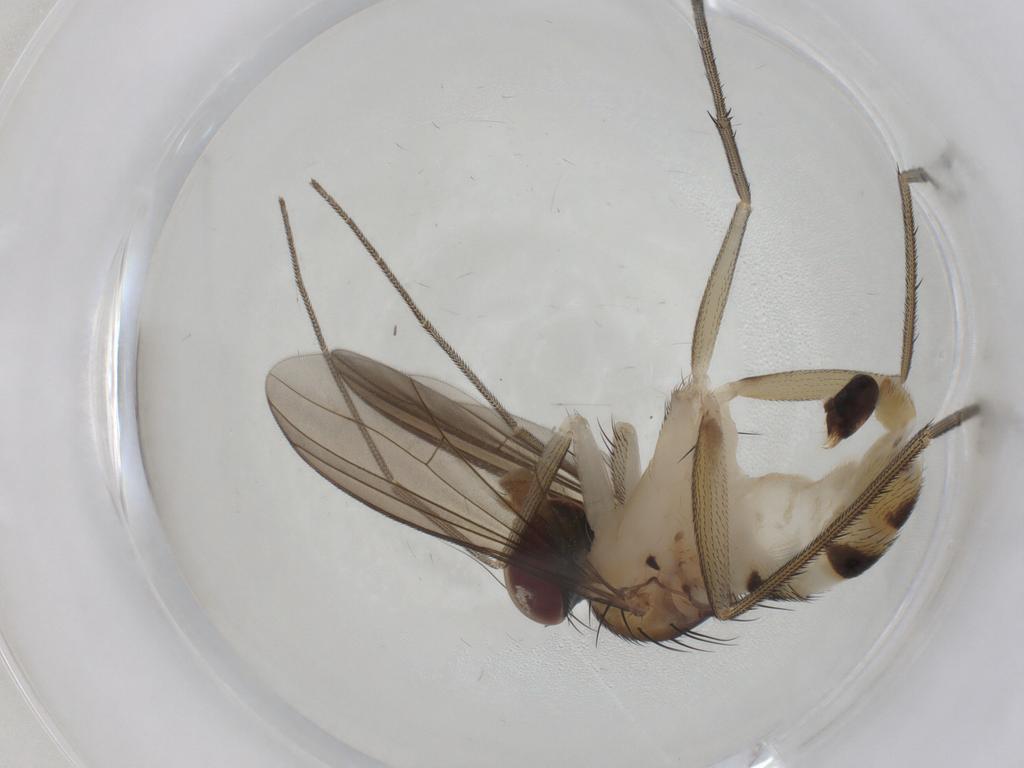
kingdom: Animalia
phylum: Arthropoda
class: Insecta
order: Diptera
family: Dolichopodidae
